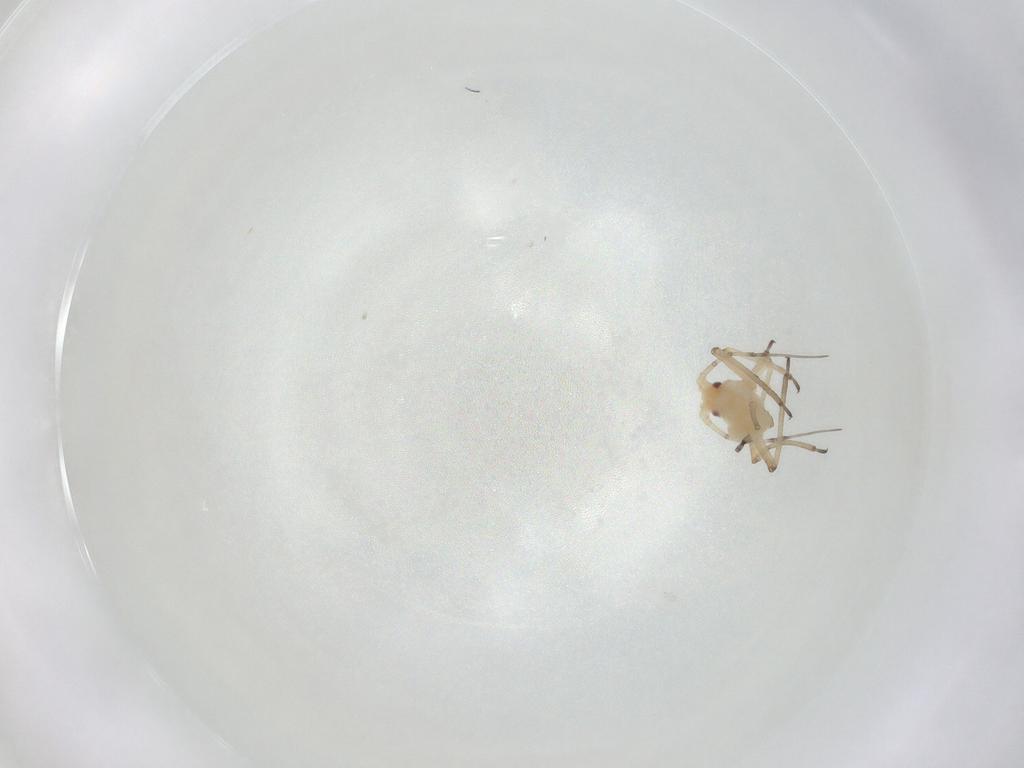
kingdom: Animalia
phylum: Arthropoda
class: Insecta
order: Hemiptera
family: Aphididae
